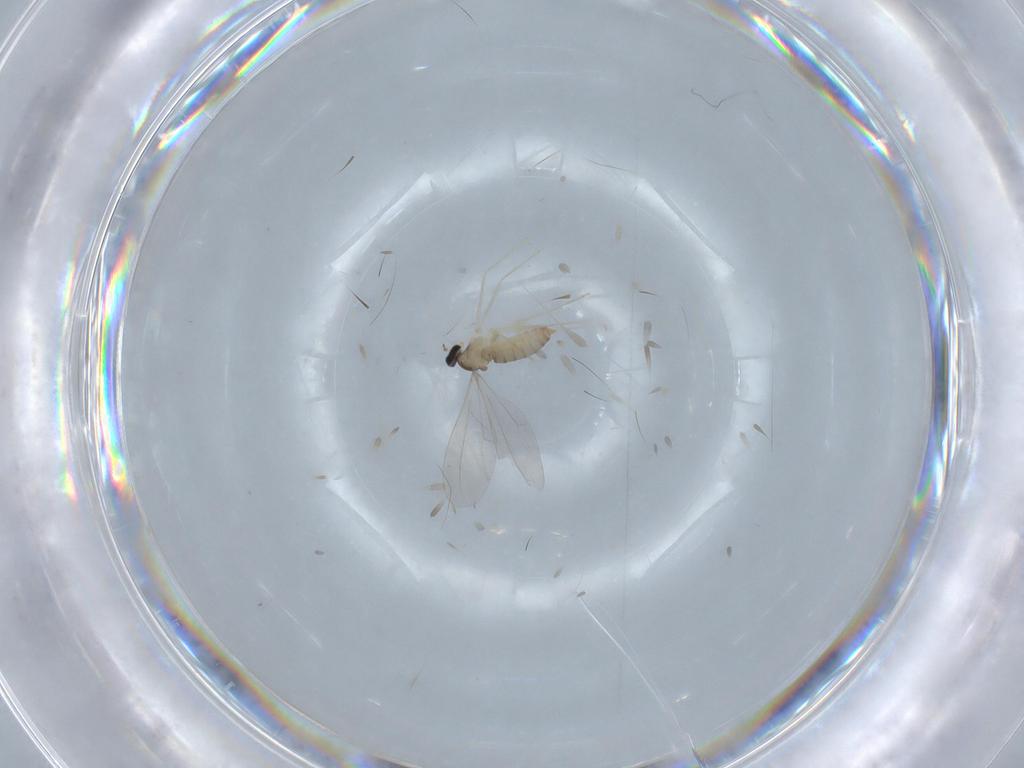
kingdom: Animalia
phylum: Arthropoda
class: Insecta
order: Diptera
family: Cecidomyiidae
